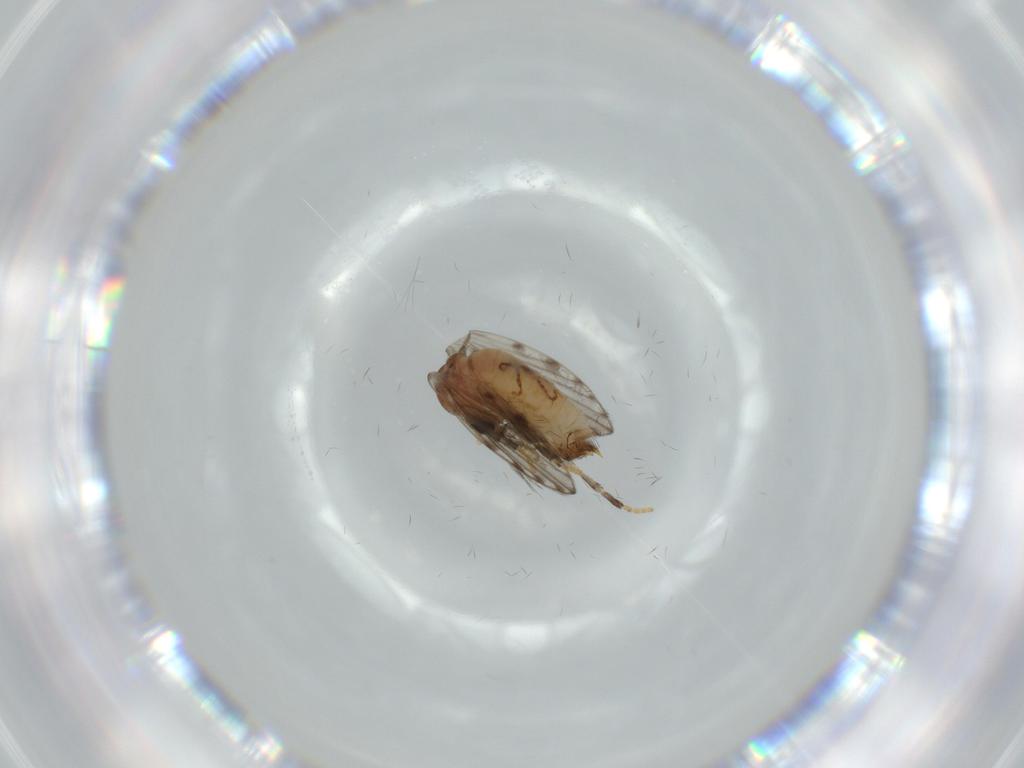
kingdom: Animalia
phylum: Arthropoda
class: Insecta
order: Diptera
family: Psychodidae
